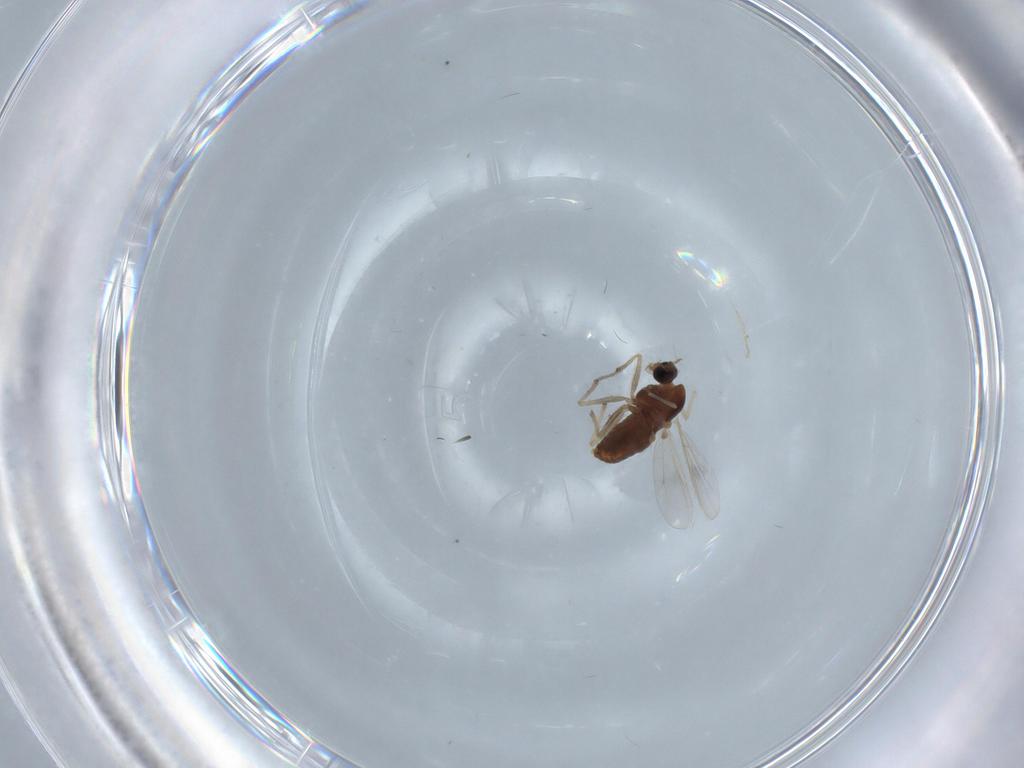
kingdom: Animalia
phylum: Arthropoda
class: Insecta
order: Diptera
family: Chironomidae
